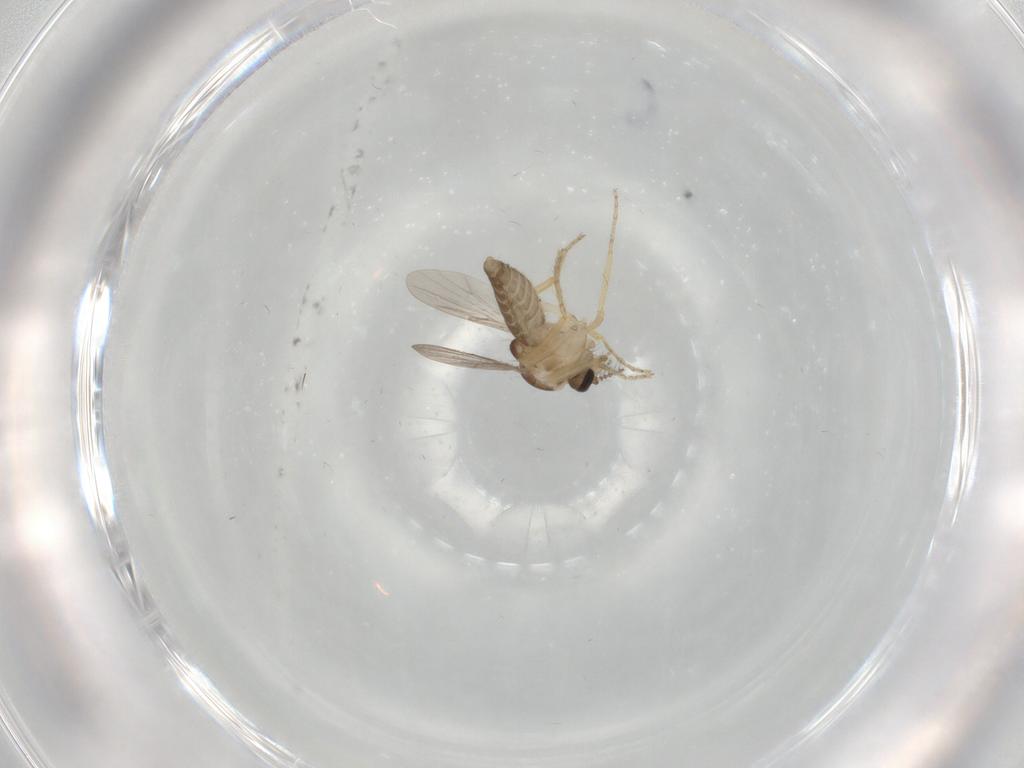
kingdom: Animalia
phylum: Arthropoda
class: Insecta
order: Diptera
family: Ceratopogonidae
